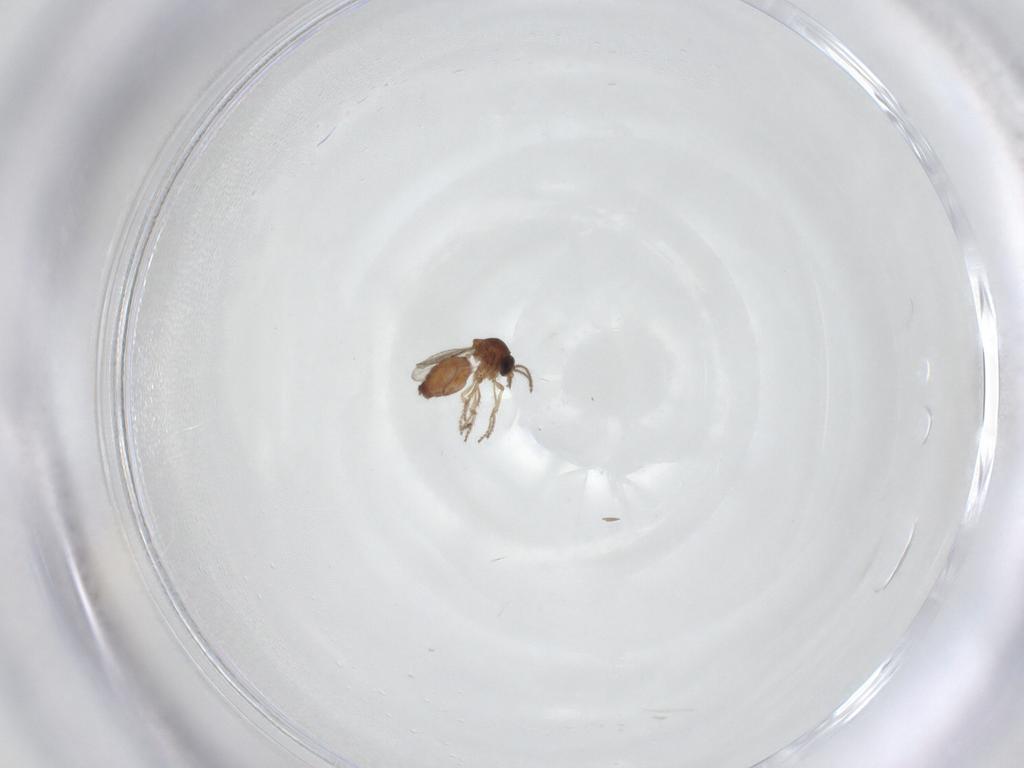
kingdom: Animalia
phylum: Arthropoda
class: Insecta
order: Diptera
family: Ceratopogonidae
